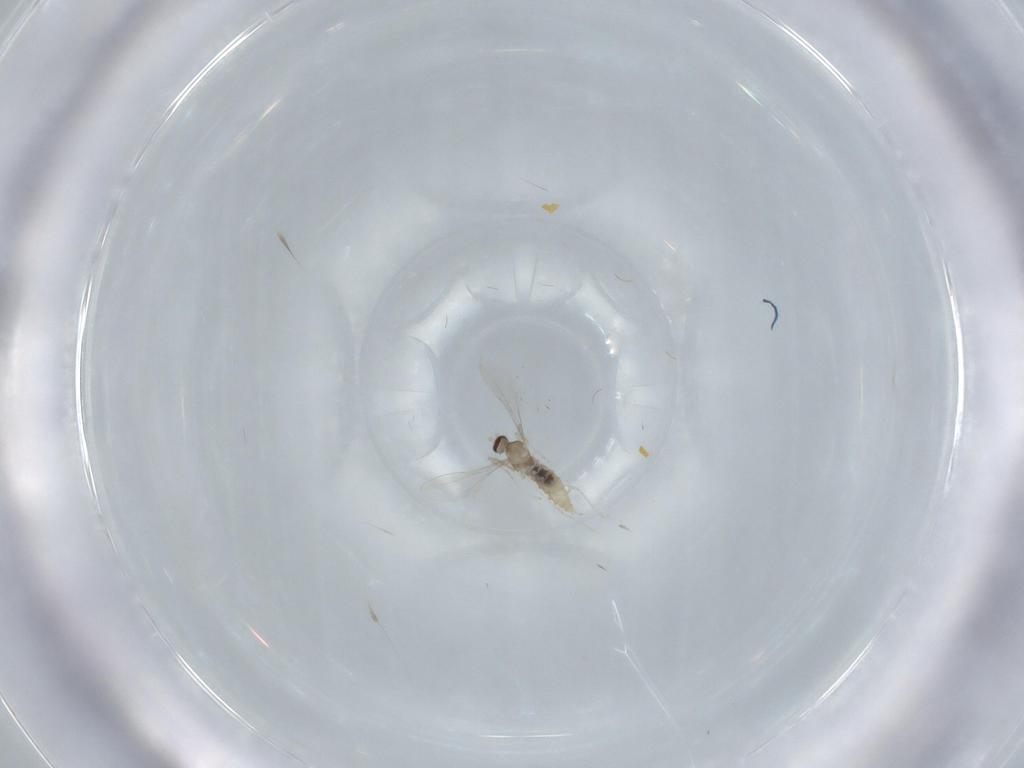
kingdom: Animalia
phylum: Arthropoda
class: Insecta
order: Diptera
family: Cecidomyiidae
